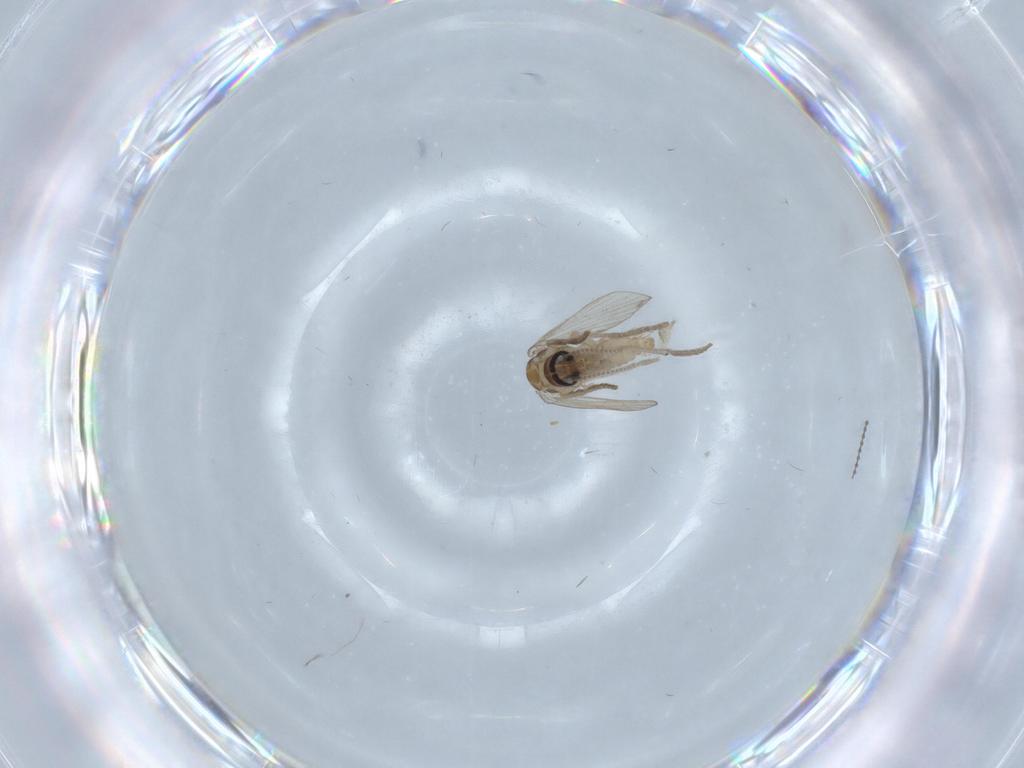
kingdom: Animalia
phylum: Arthropoda
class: Insecta
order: Diptera
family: Psychodidae
